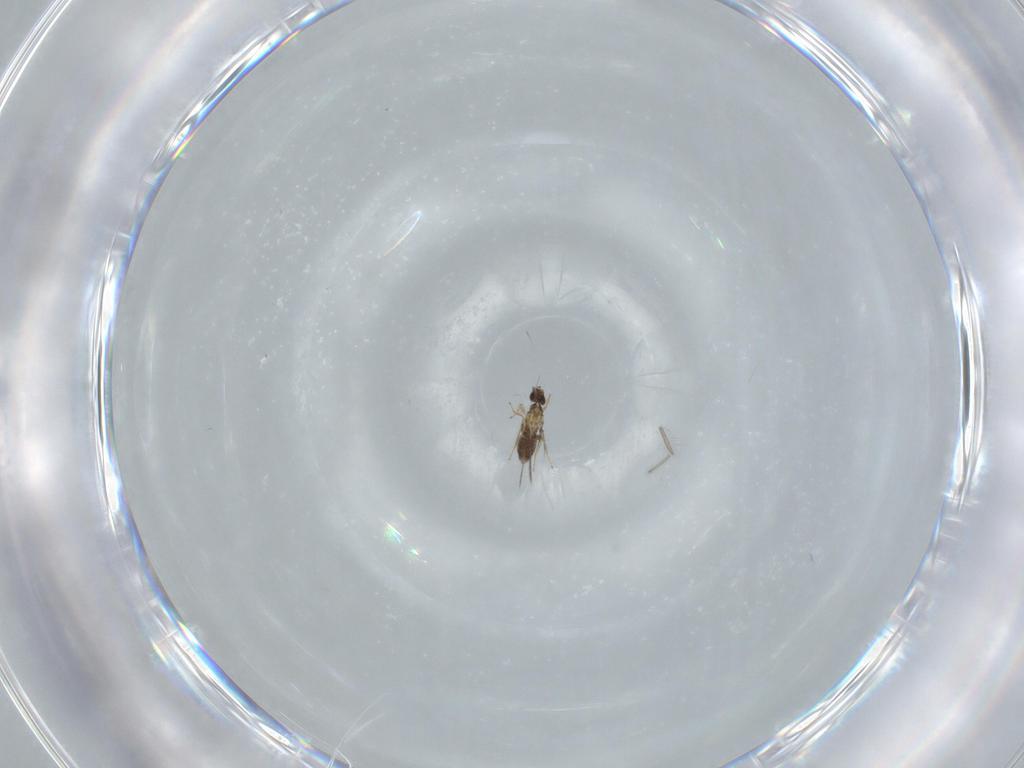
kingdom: Animalia
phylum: Arthropoda
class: Insecta
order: Hymenoptera
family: Mymaridae
